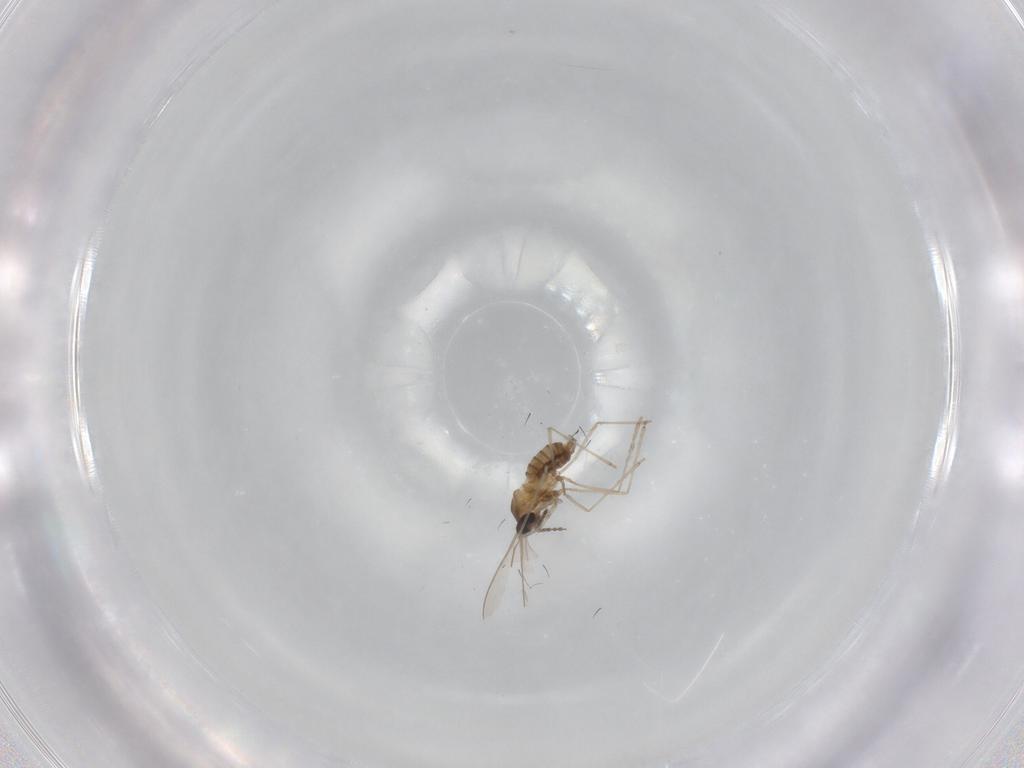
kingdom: Animalia
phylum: Arthropoda
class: Insecta
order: Diptera
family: Cecidomyiidae
